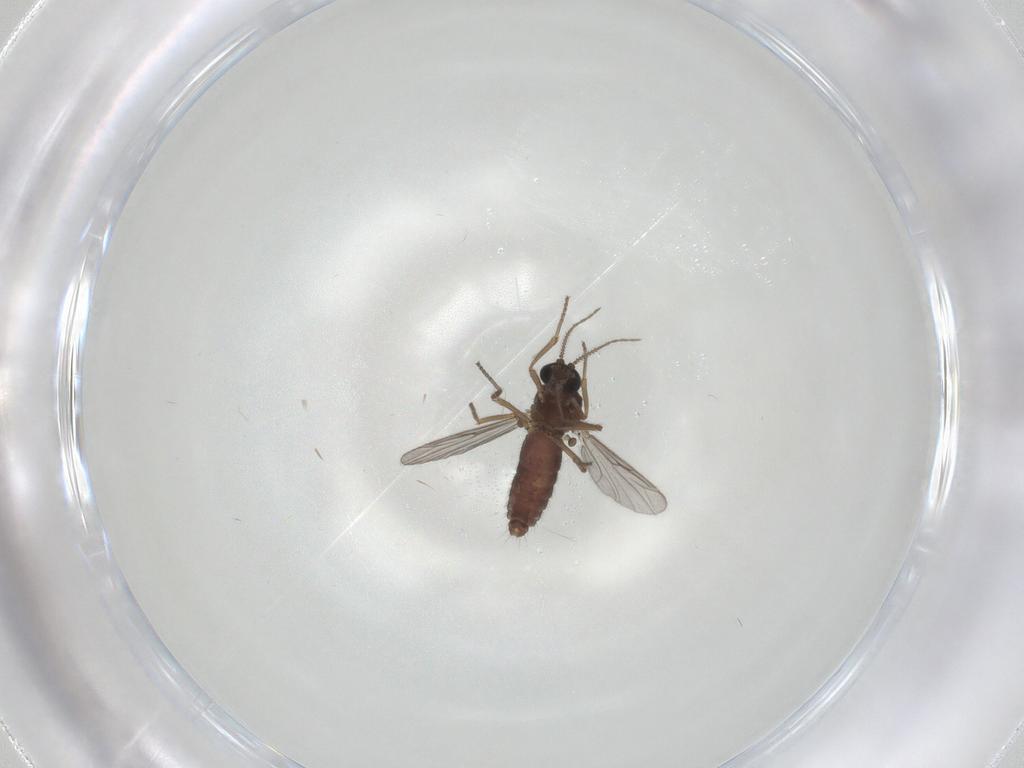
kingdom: Animalia
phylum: Arthropoda
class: Insecta
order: Diptera
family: Ceratopogonidae
